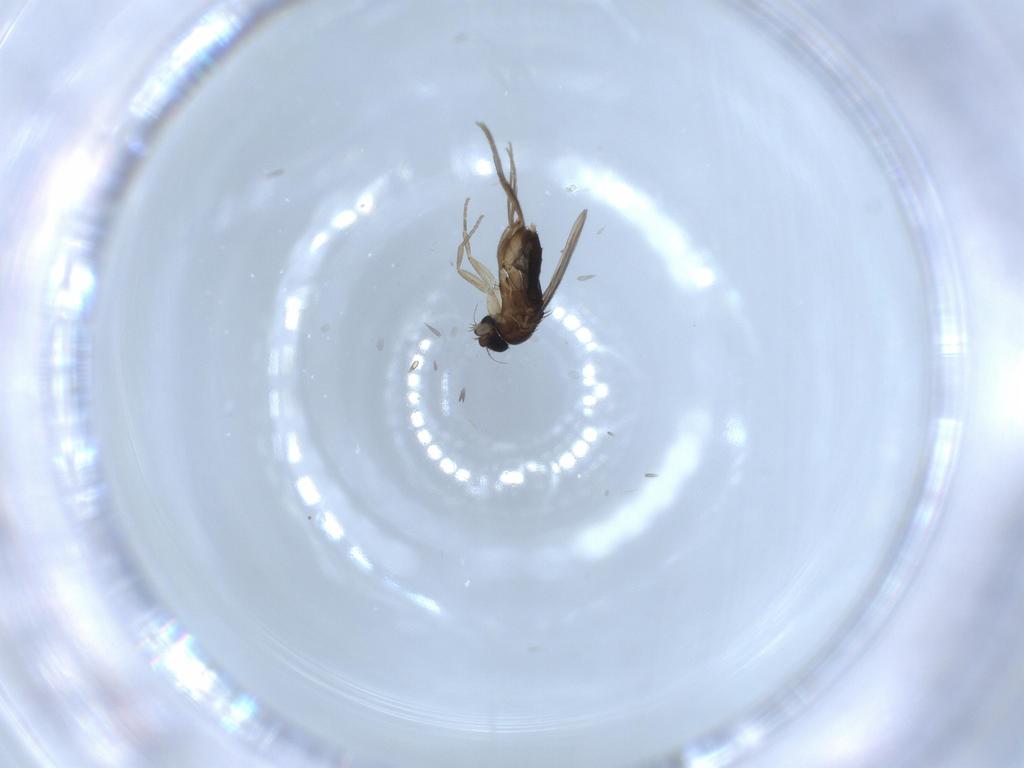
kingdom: Animalia
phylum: Arthropoda
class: Insecta
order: Diptera
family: Phoridae
